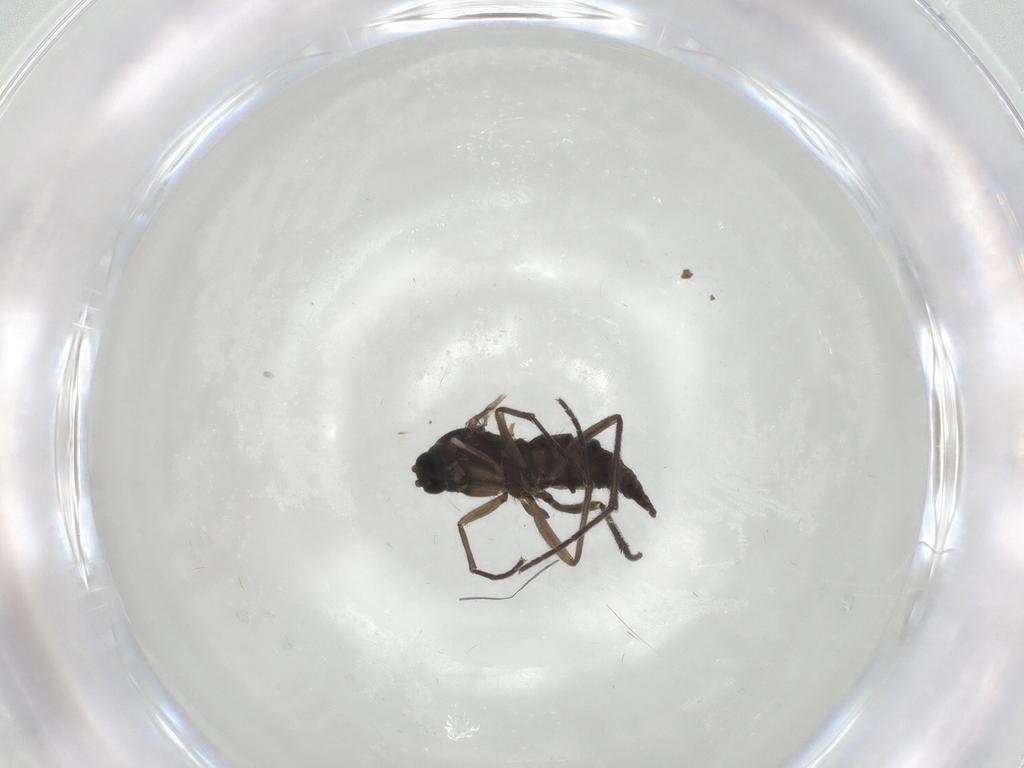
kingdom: Animalia
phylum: Arthropoda
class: Insecta
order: Diptera
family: Sciaridae
